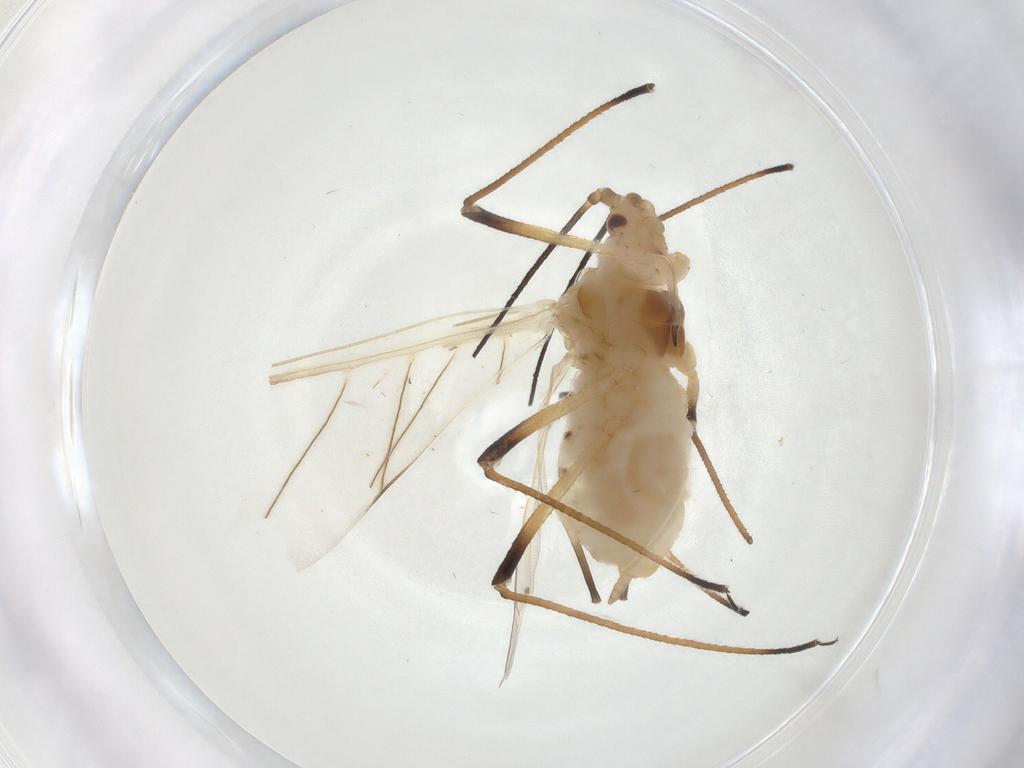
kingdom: Animalia
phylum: Arthropoda
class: Insecta
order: Hemiptera
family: Aphididae
